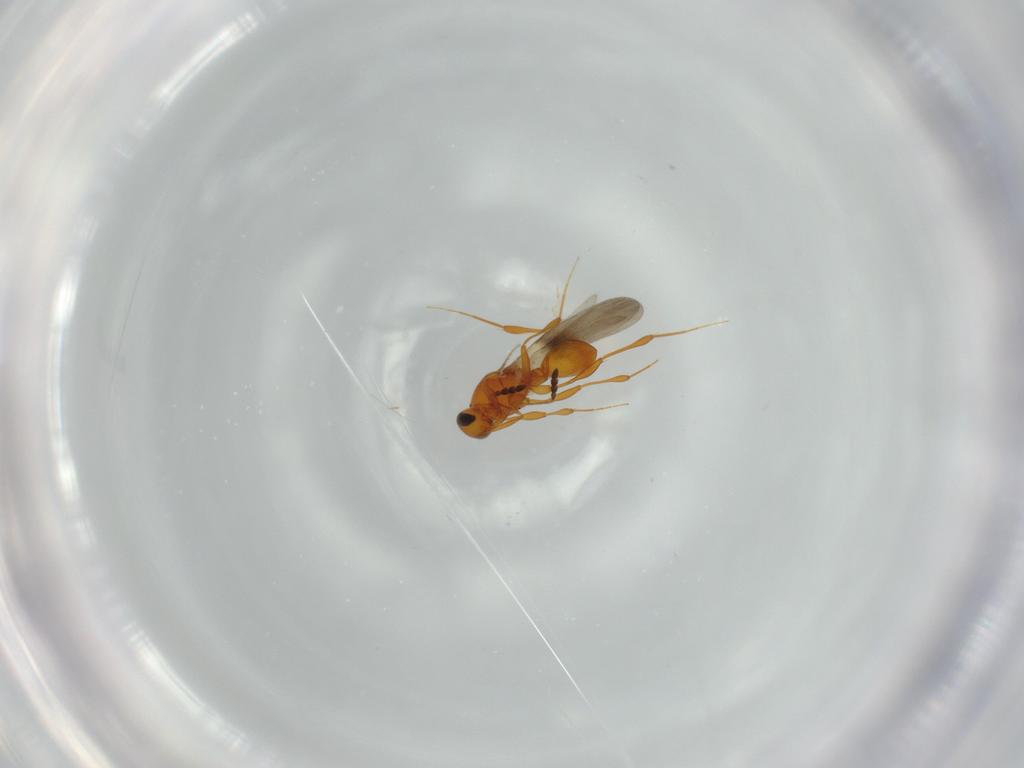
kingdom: Animalia
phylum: Arthropoda
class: Insecta
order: Hymenoptera
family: Platygastridae
